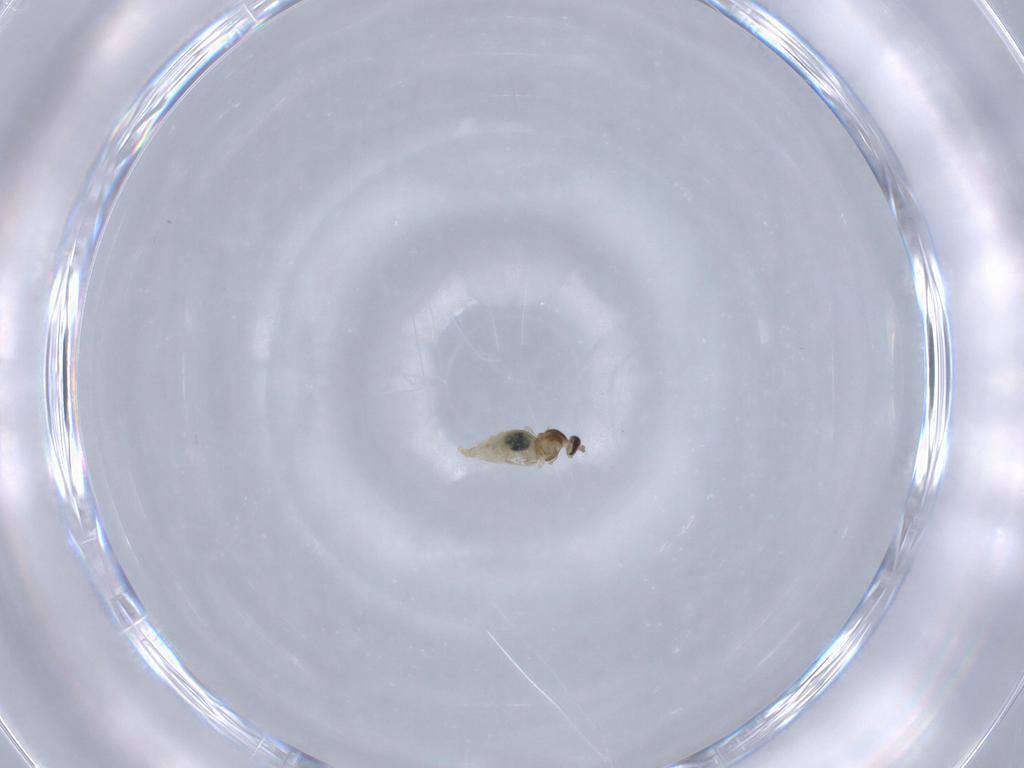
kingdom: Animalia
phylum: Arthropoda
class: Insecta
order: Diptera
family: Cecidomyiidae
